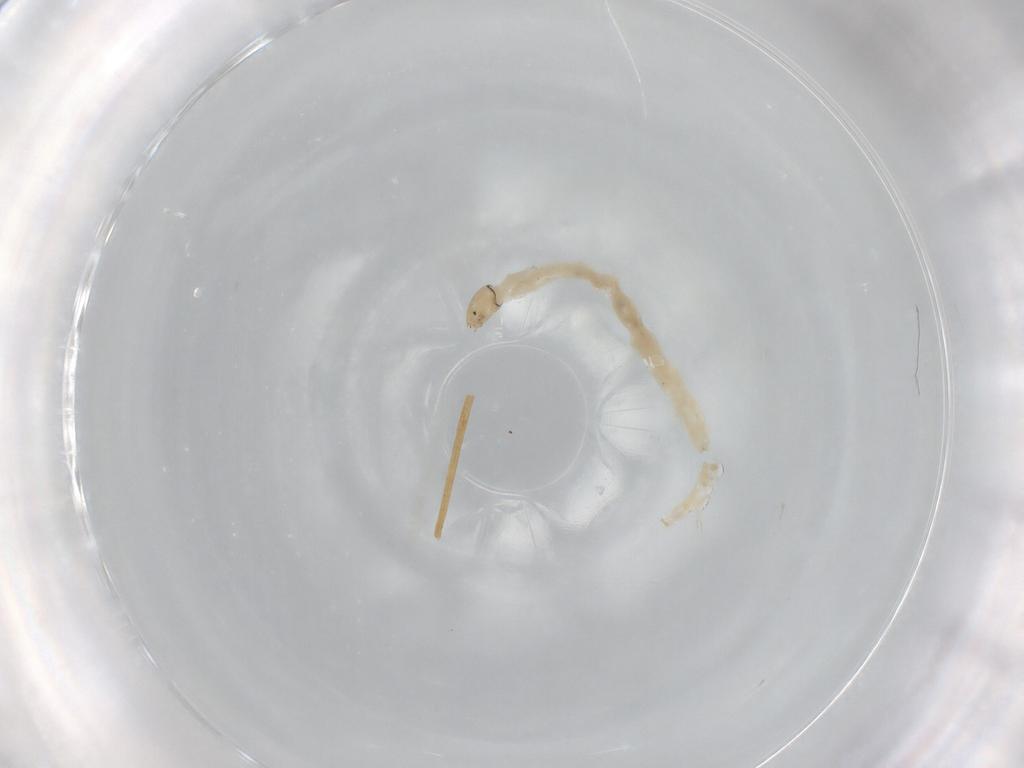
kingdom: Animalia
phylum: Arthropoda
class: Insecta
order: Diptera
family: Chironomidae
